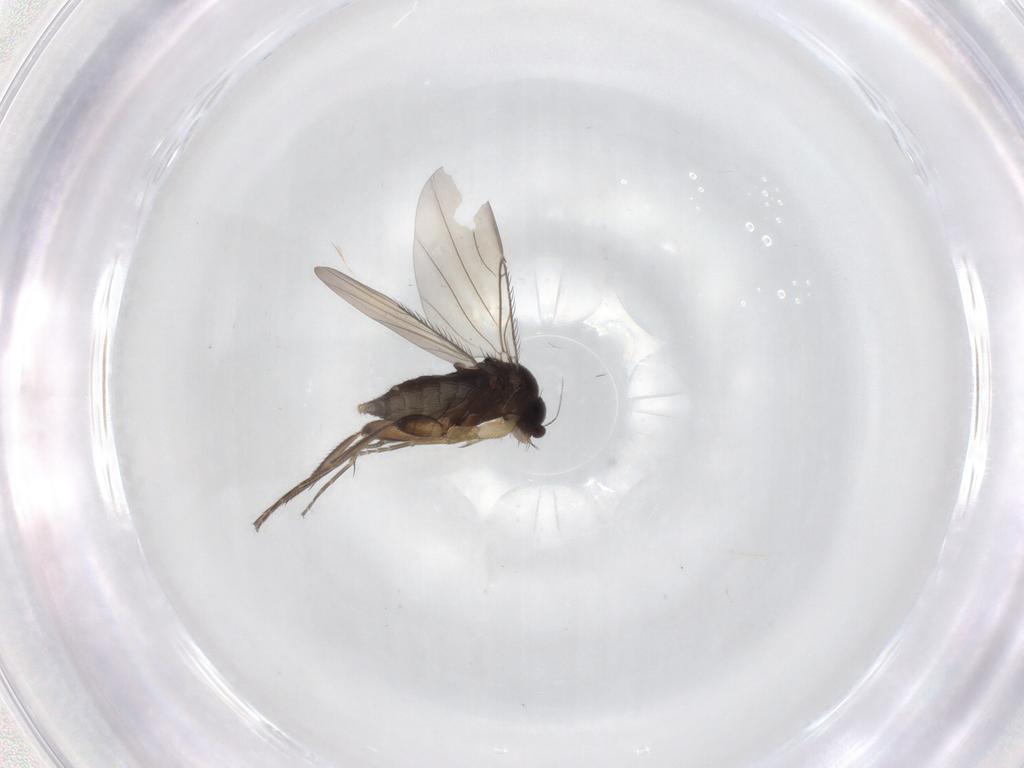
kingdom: Animalia
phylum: Arthropoda
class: Insecta
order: Diptera
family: Phoridae
